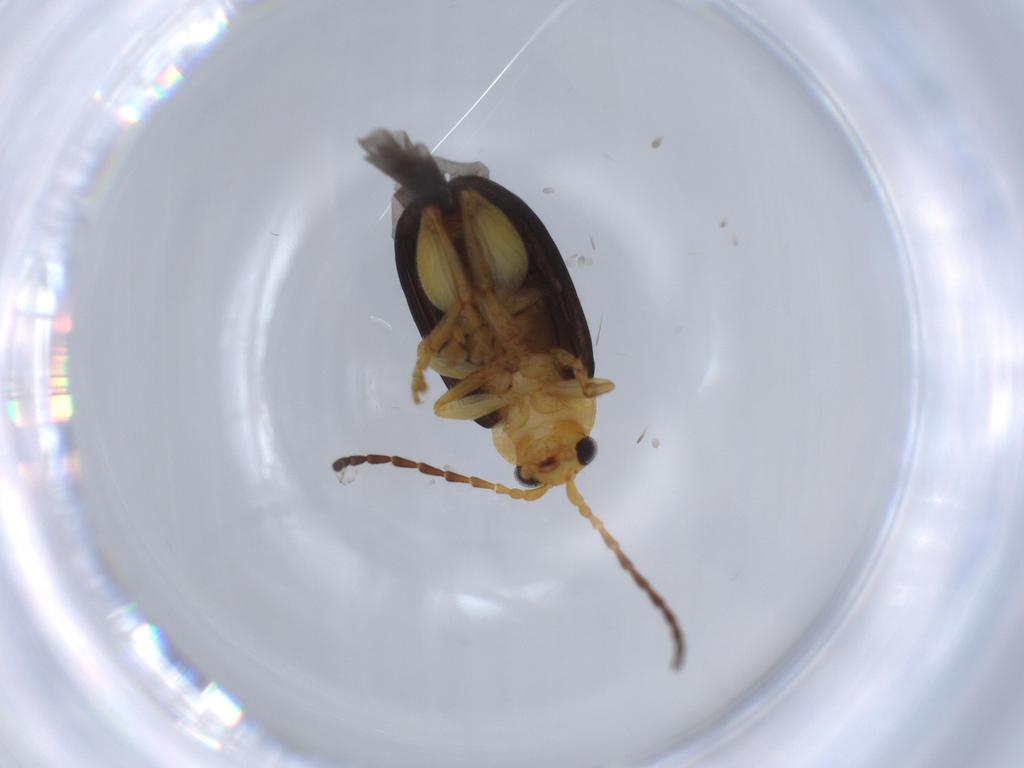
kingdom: Animalia
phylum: Arthropoda
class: Insecta
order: Coleoptera
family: Chrysomelidae
